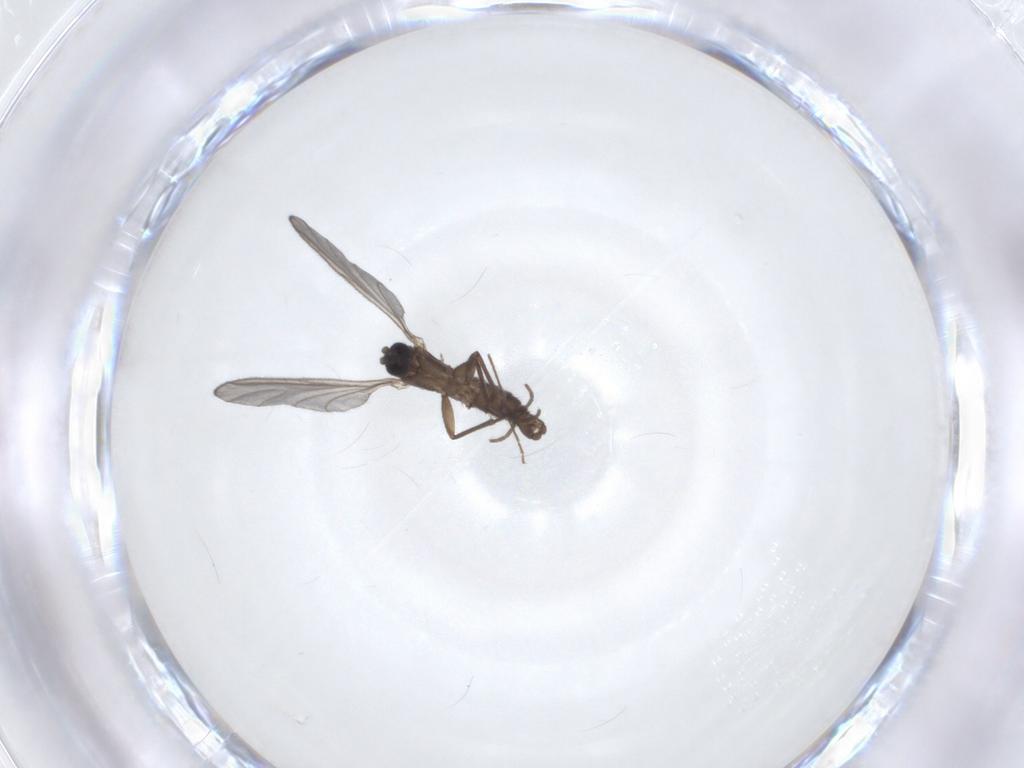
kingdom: Animalia
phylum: Arthropoda
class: Insecta
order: Diptera
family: Sciaridae
